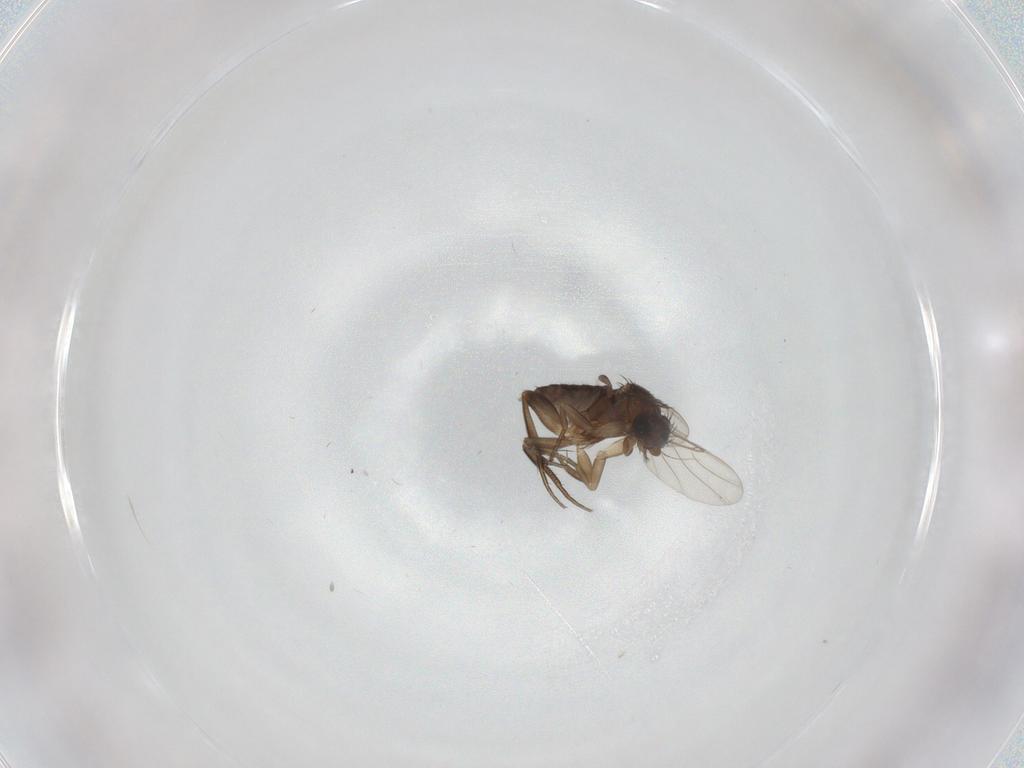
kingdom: Animalia
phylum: Arthropoda
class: Insecta
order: Diptera
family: Phoridae
